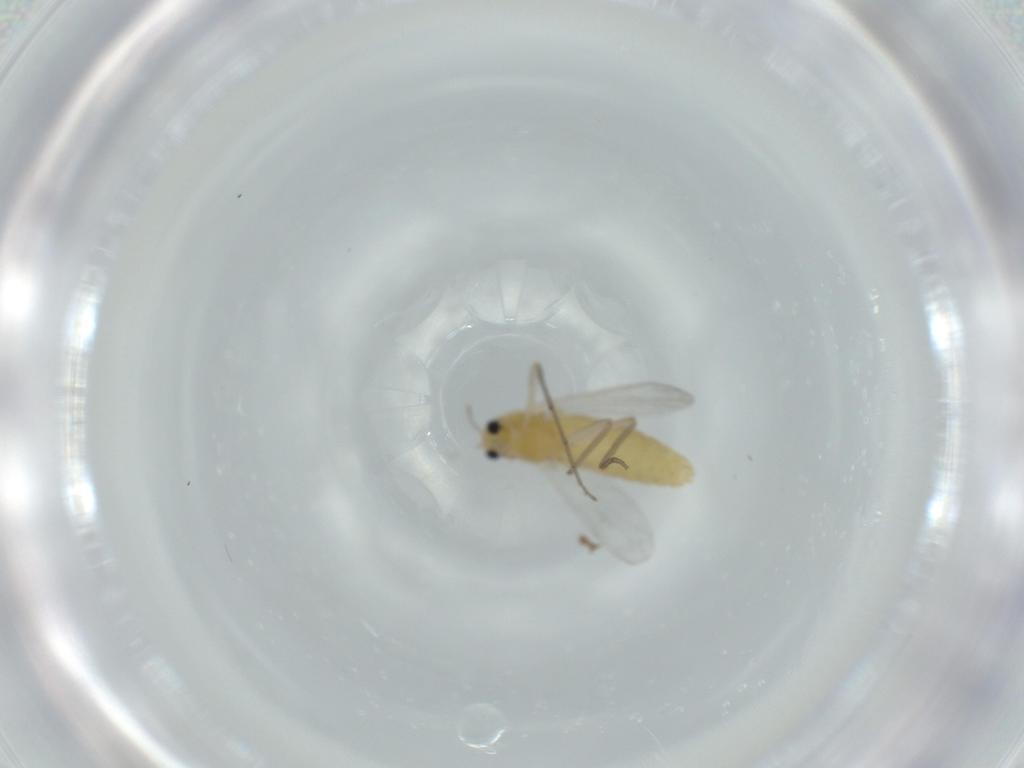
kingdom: Animalia
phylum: Arthropoda
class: Insecta
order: Diptera
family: Chironomidae
